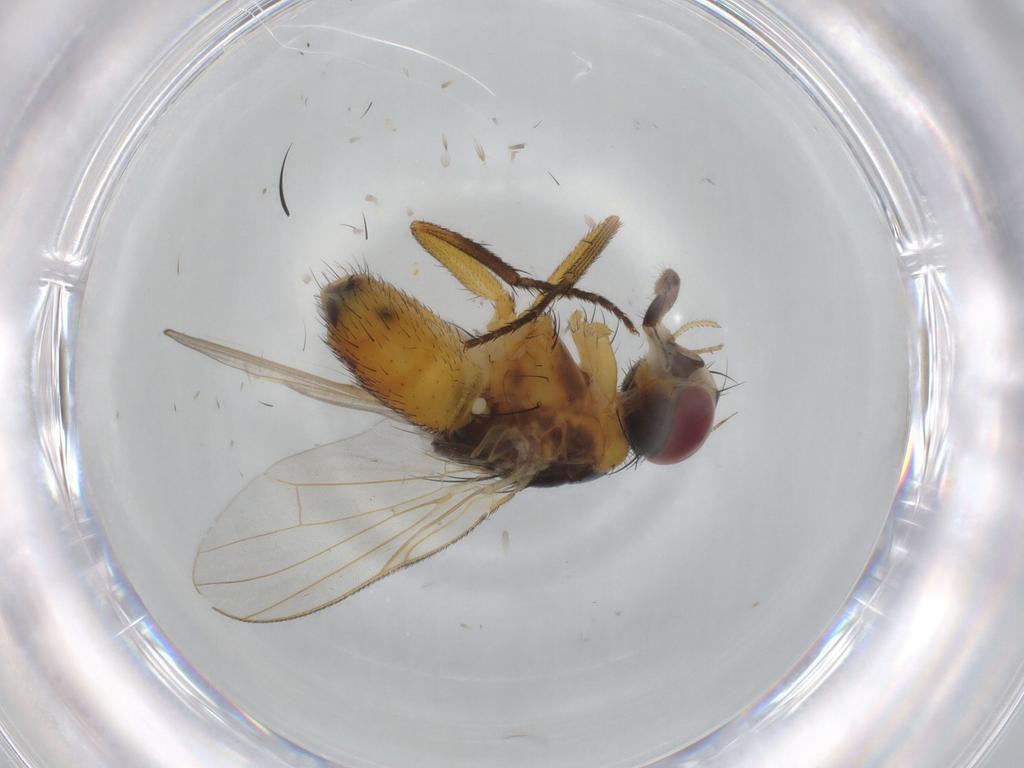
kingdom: Animalia
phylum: Arthropoda
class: Insecta
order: Diptera
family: Muscidae
